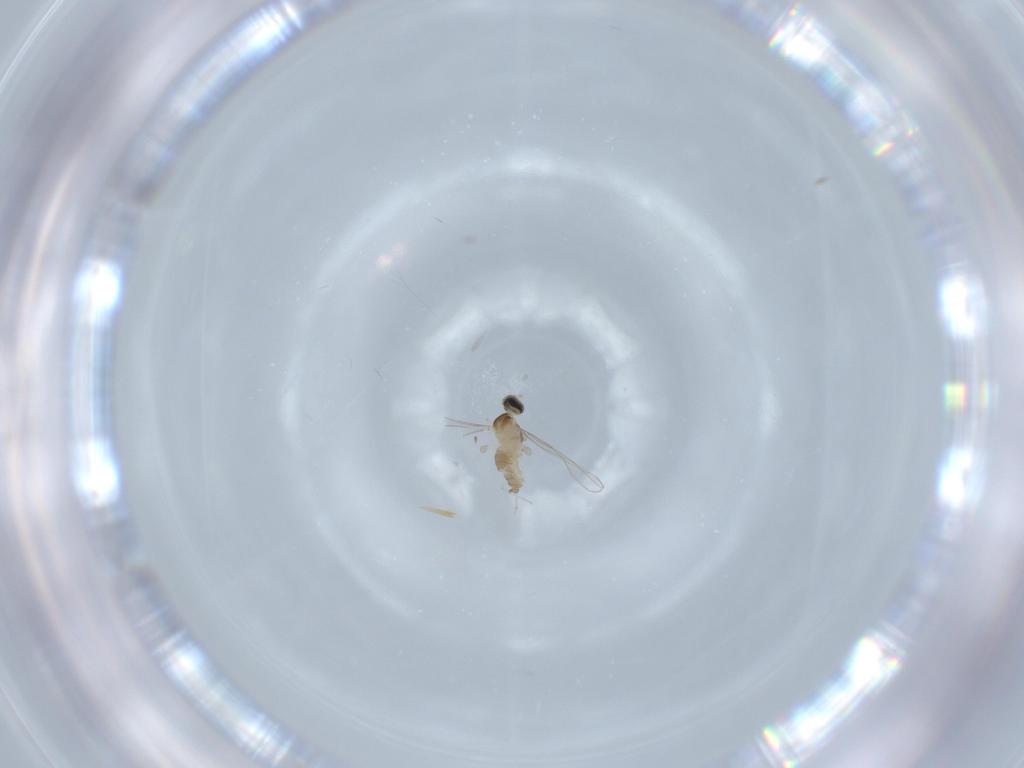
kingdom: Animalia
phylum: Arthropoda
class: Insecta
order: Diptera
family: Cecidomyiidae
